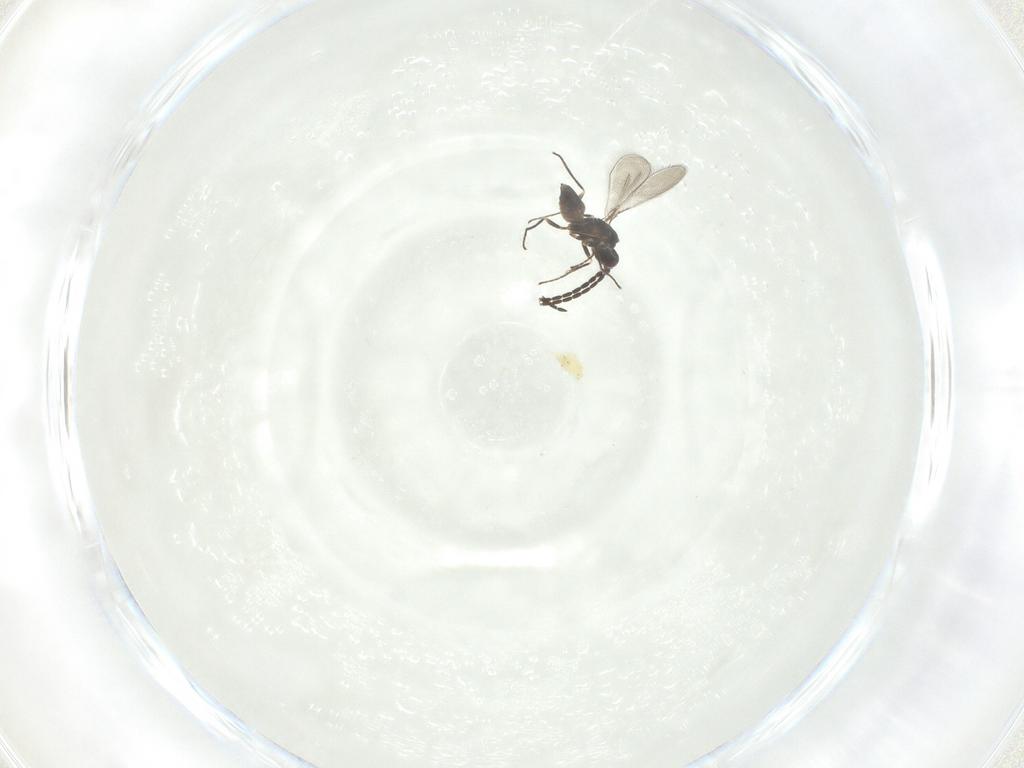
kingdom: Animalia
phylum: Arthropoda
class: Insecta
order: Hymenoptera
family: Mymaridae
